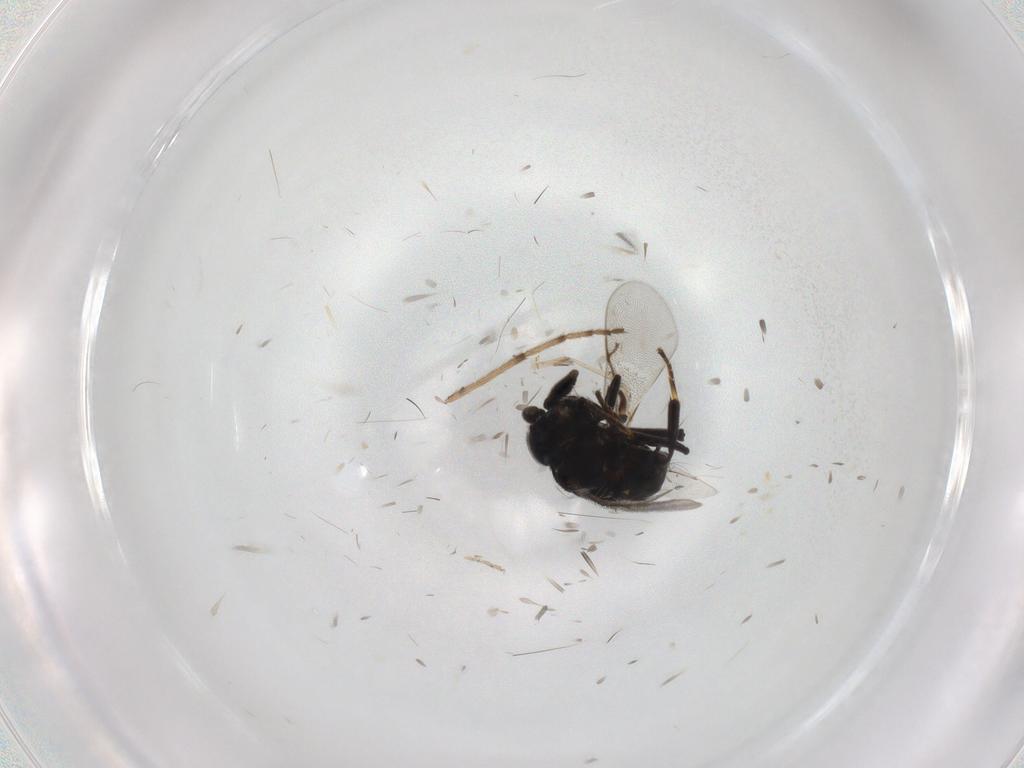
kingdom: Animalia
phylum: Arthropoda
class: Insecta
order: Hymenoptera
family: Encyrtidae
